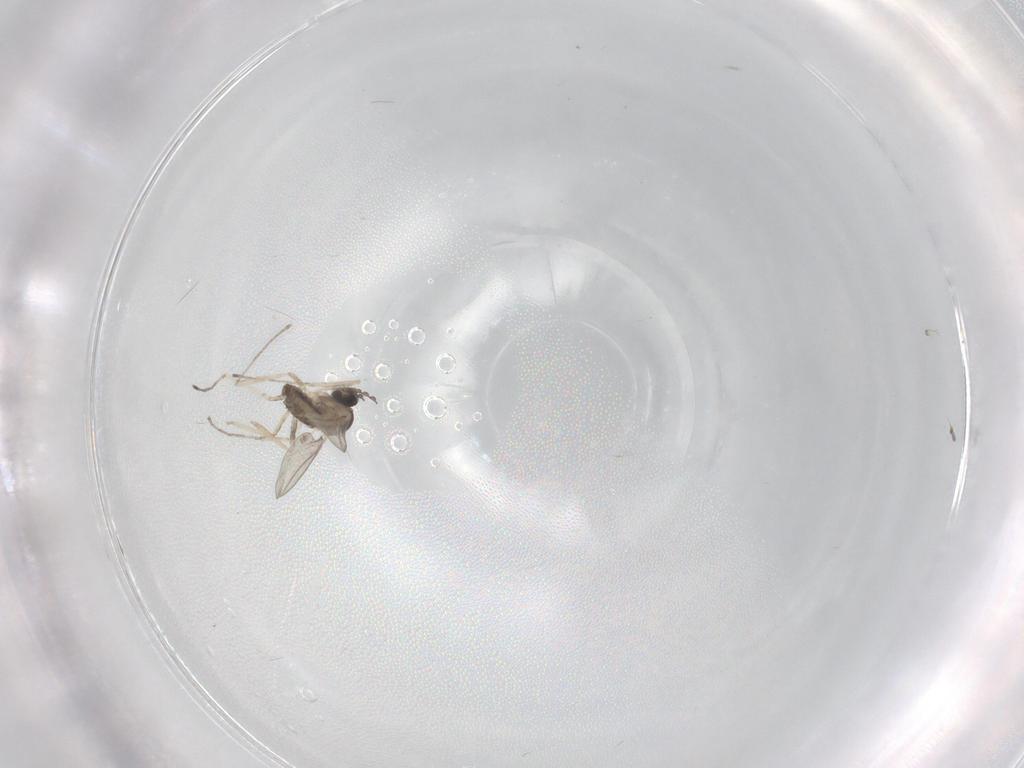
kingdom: Animalia
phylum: Arthropoda
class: Insecta
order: Diptera
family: Cecidomyiidae
